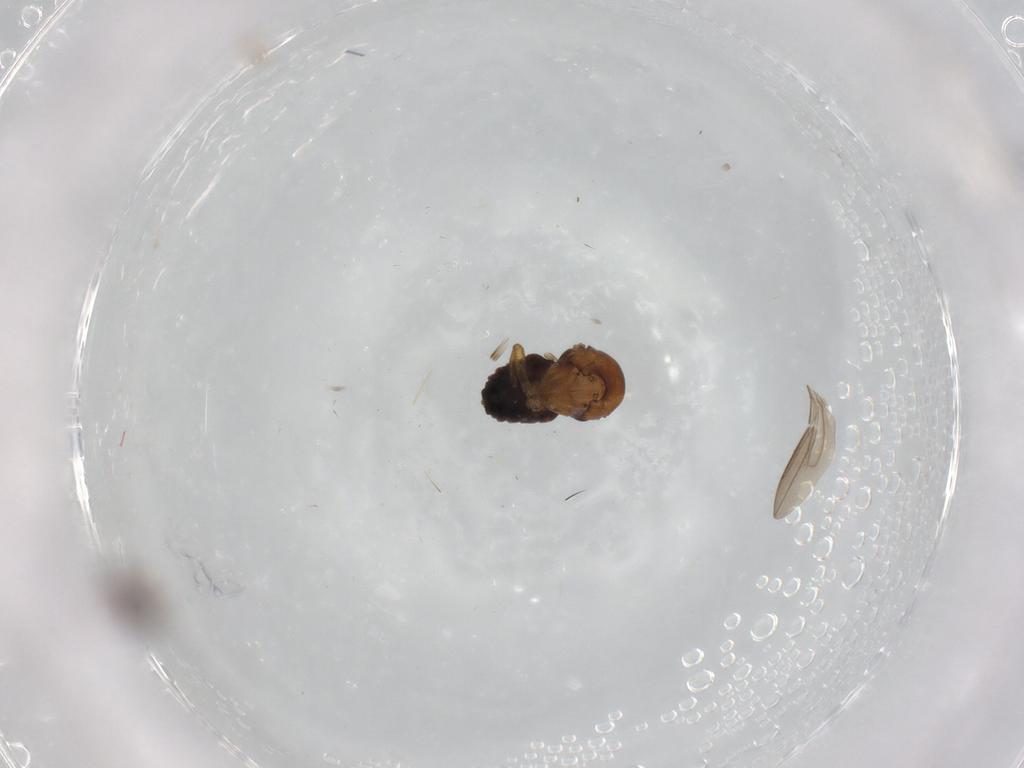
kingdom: Animalia
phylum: Arthropoda
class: Insecta
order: Diptera
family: Sphaeroceridae
